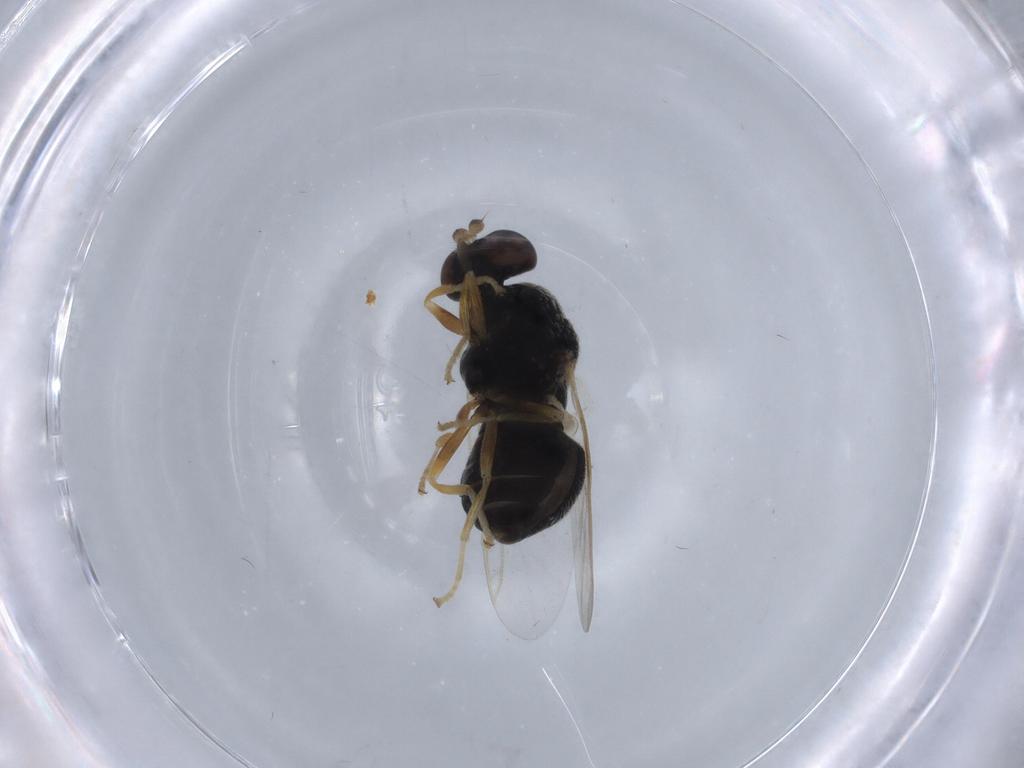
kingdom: Animalia
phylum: Arthropoda
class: Insecta
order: Diptera
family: Stratiomyidae
